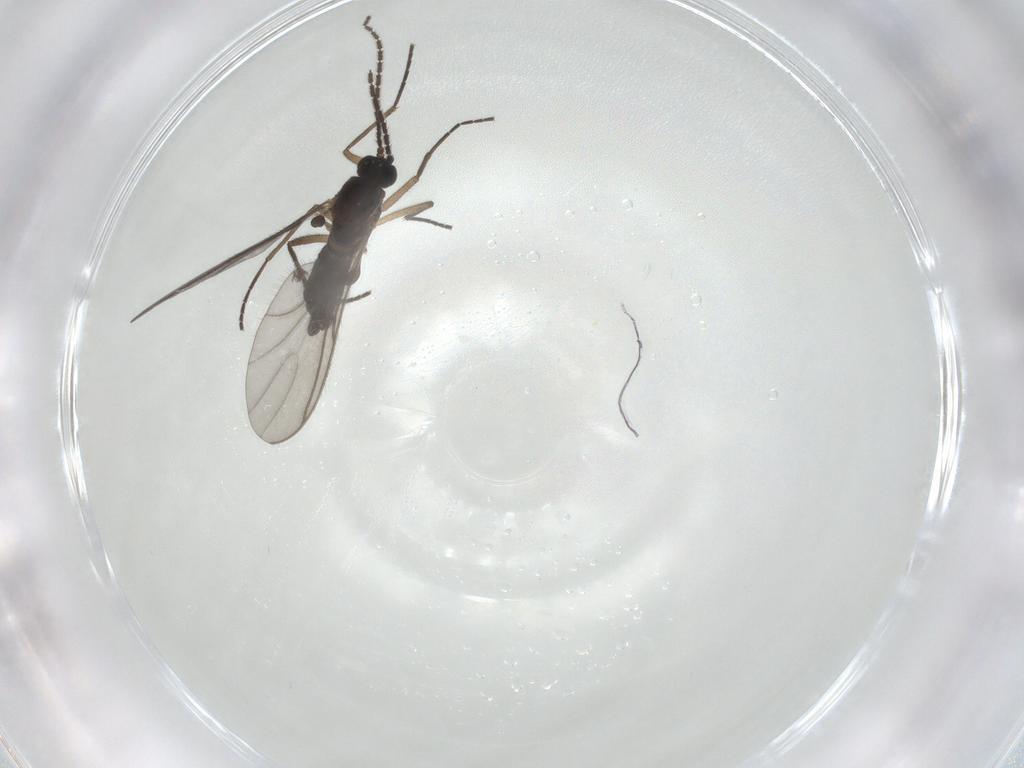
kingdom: Animalia
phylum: Arthropoda
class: Insecta
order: Diptera
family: Sciaridae
